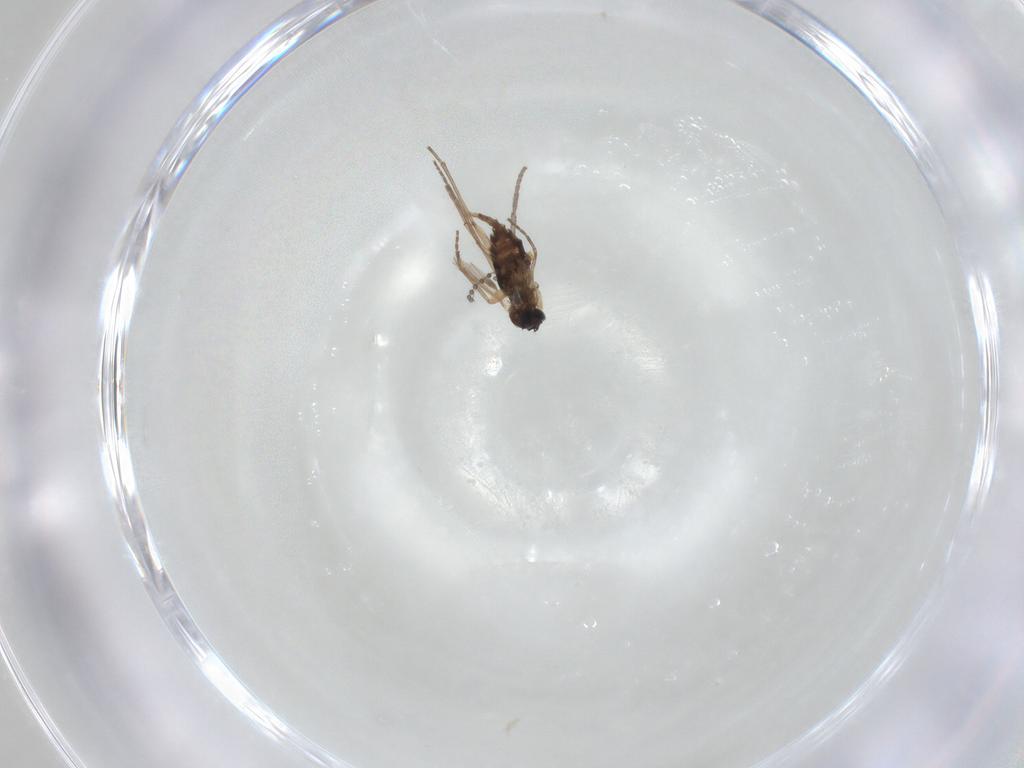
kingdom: Animalia
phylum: Arthropoda
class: Insecta
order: Diptera
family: Sciaridae
